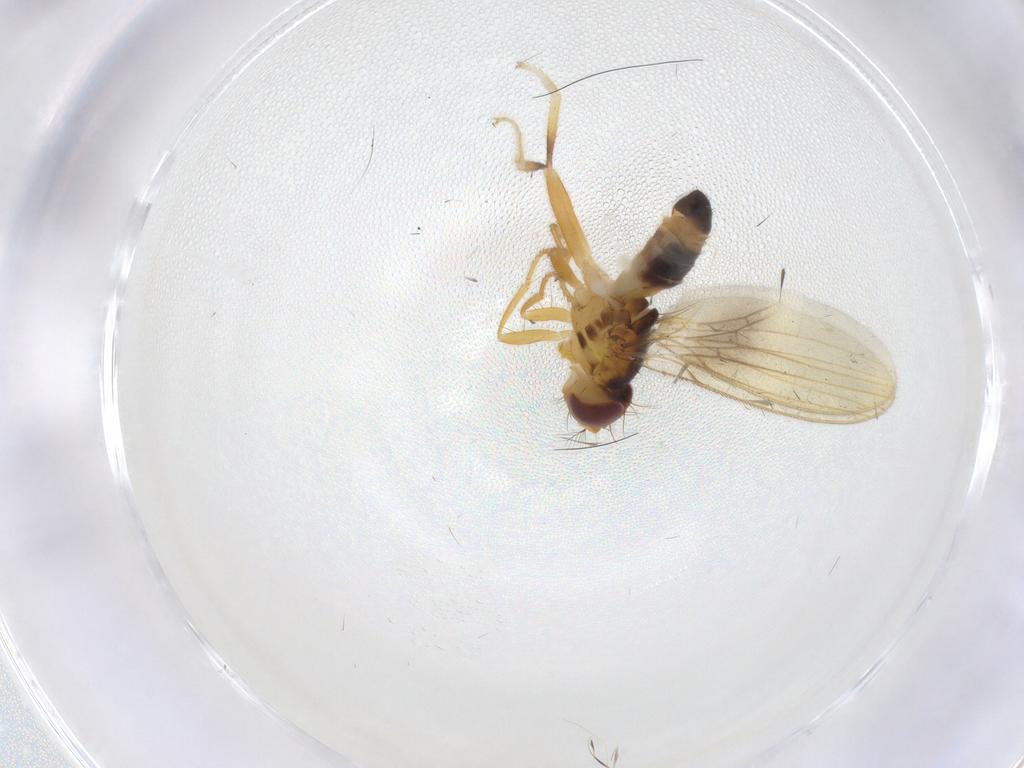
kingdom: Animalia
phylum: Arthropoda
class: Insecta
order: Diptera
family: Periscelididae
